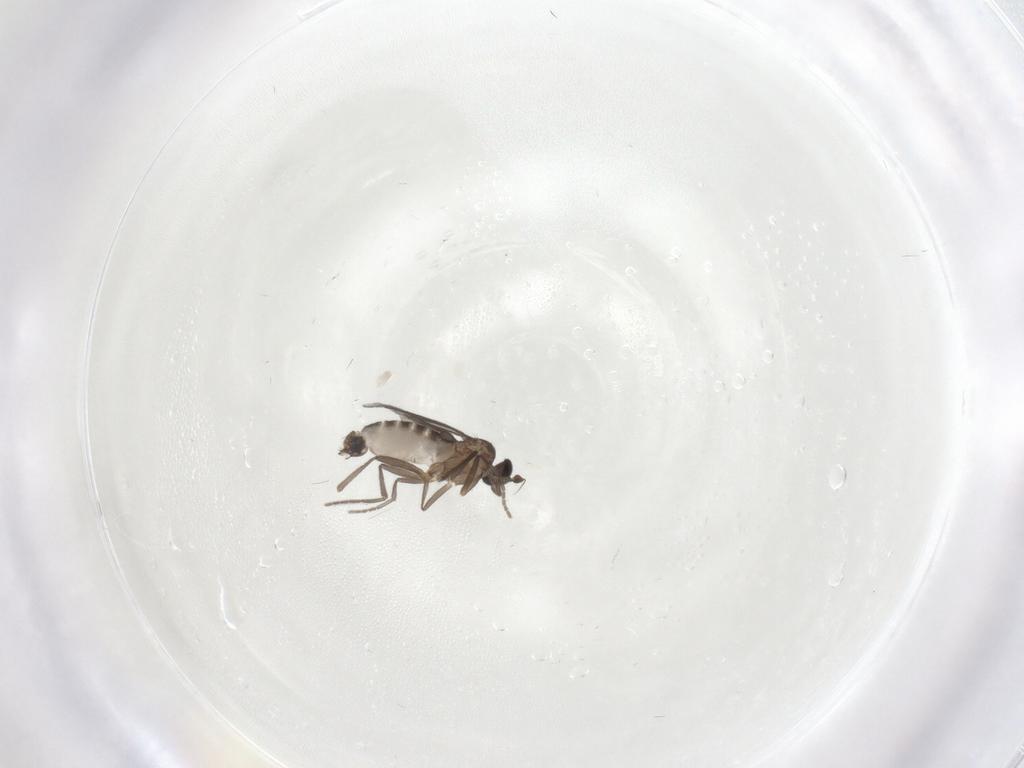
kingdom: Animalia
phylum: Arthropoda
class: Insecta
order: Diptera
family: Phoridae
